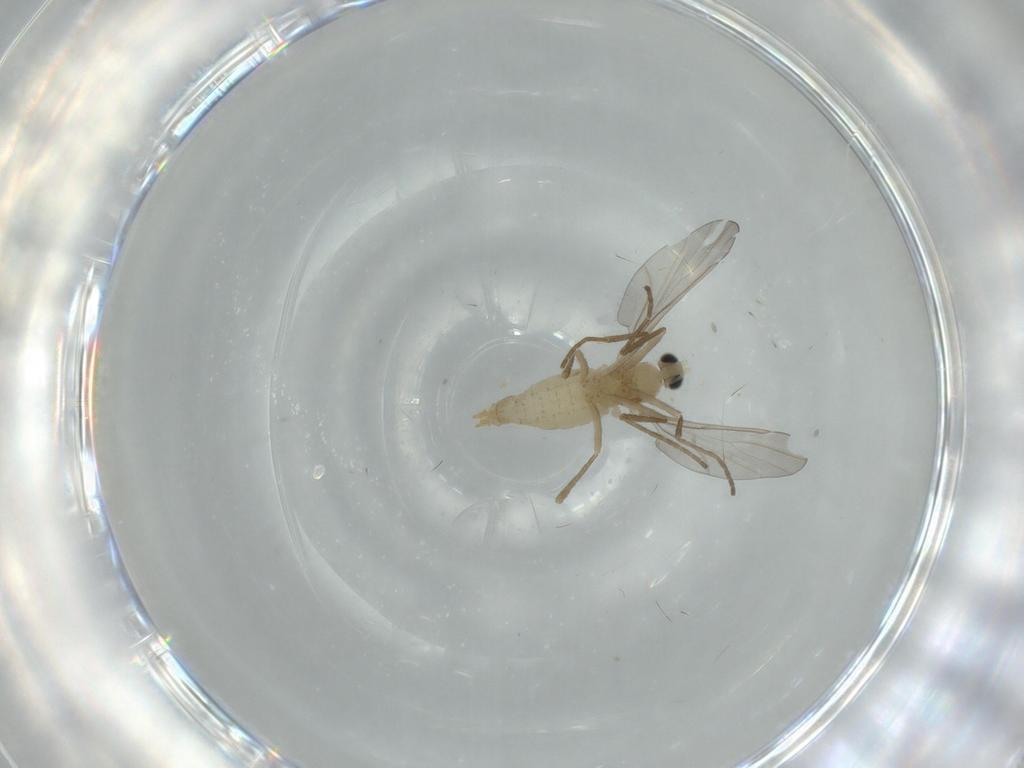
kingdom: Animalia
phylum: Arthropoda
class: Insecta
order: Diptera
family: Cecidomyiidae
